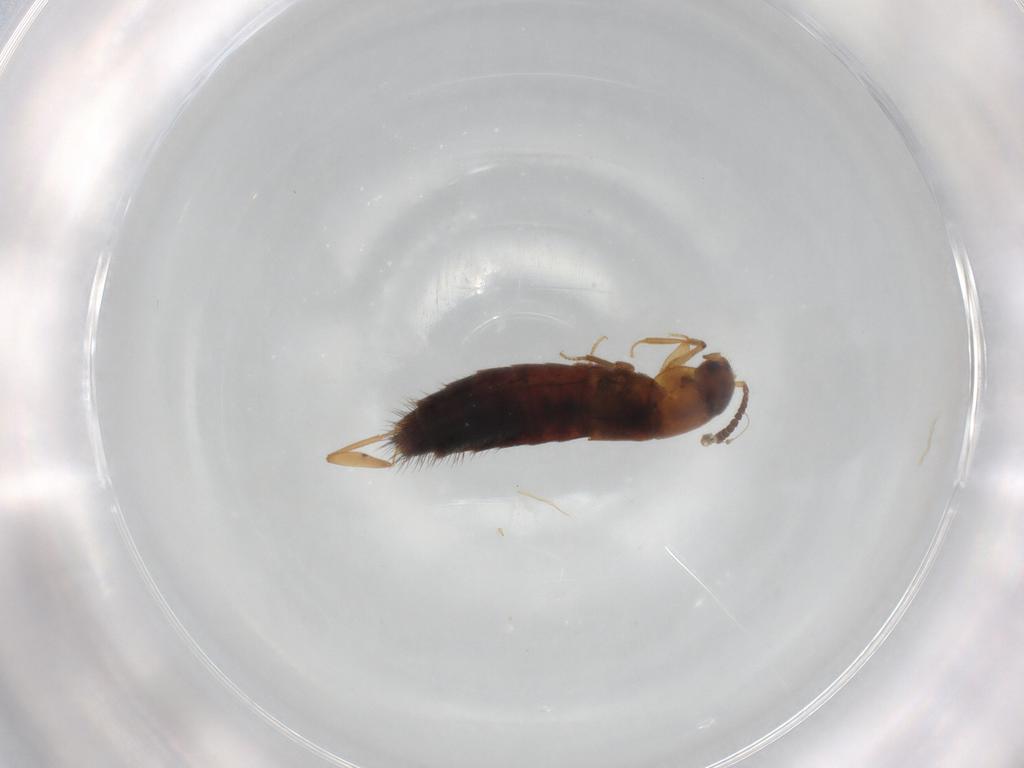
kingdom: Animalia
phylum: Arthropoda
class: Insecta
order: Coleoptera
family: Staphylinidae
